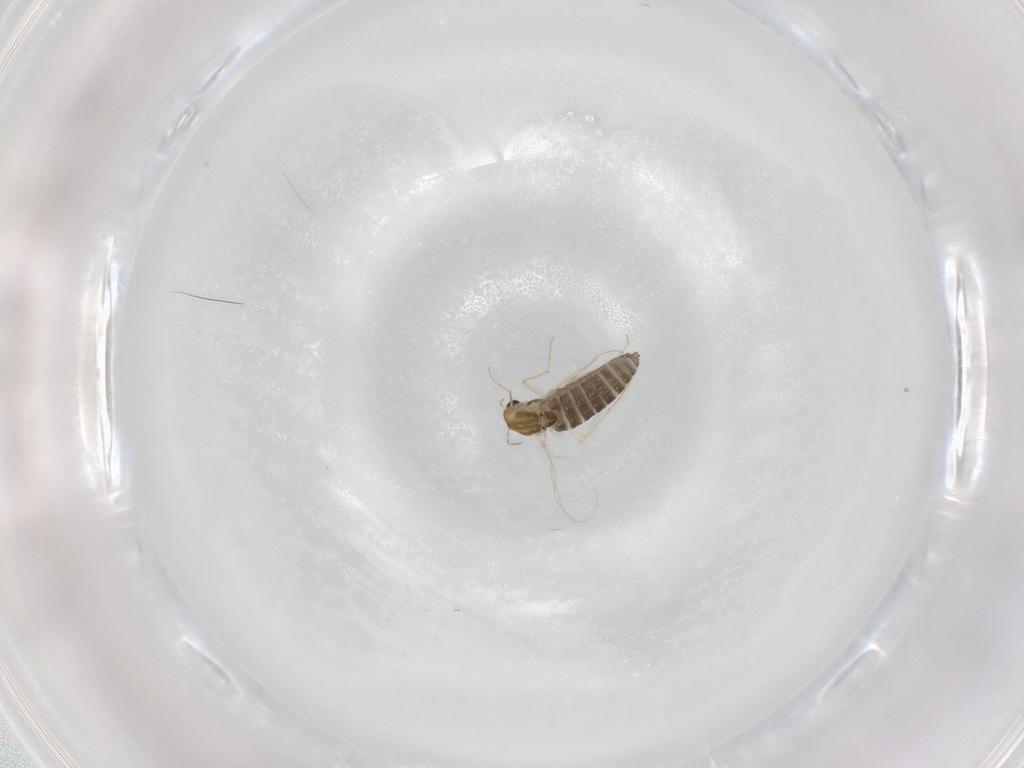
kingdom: Animalia
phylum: Arthropoda
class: Insecta
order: Diptera
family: Chironomidae
